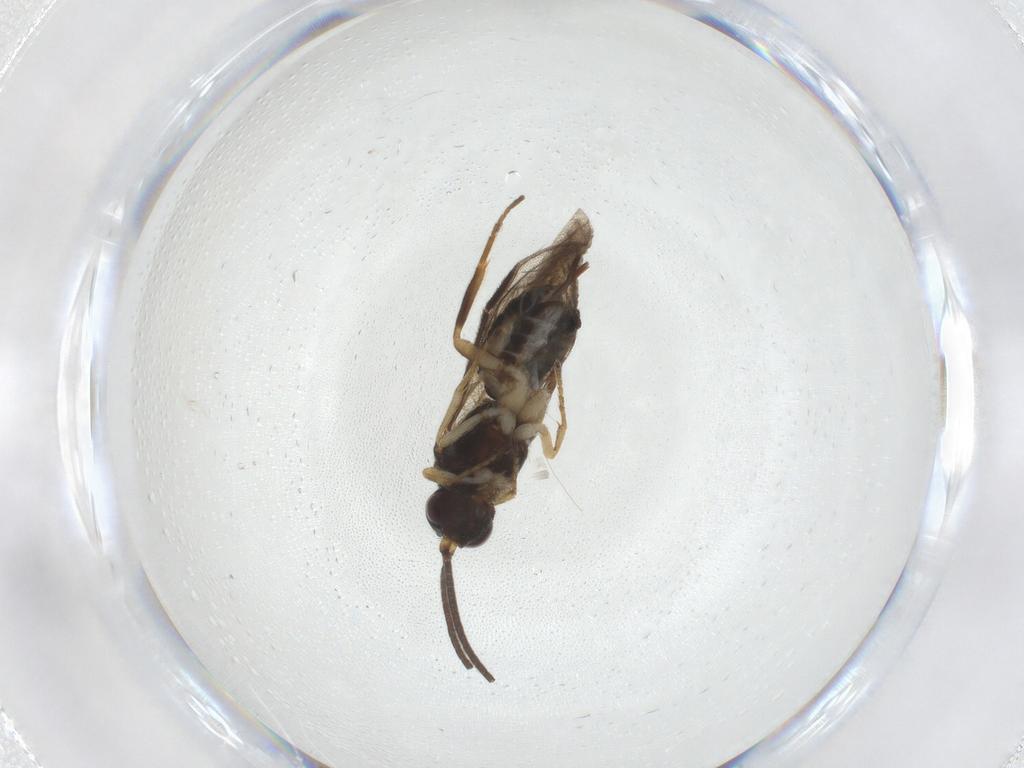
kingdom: Animalia
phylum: Arthropoda
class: Insecta
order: Hymenoptera
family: Braconidae
